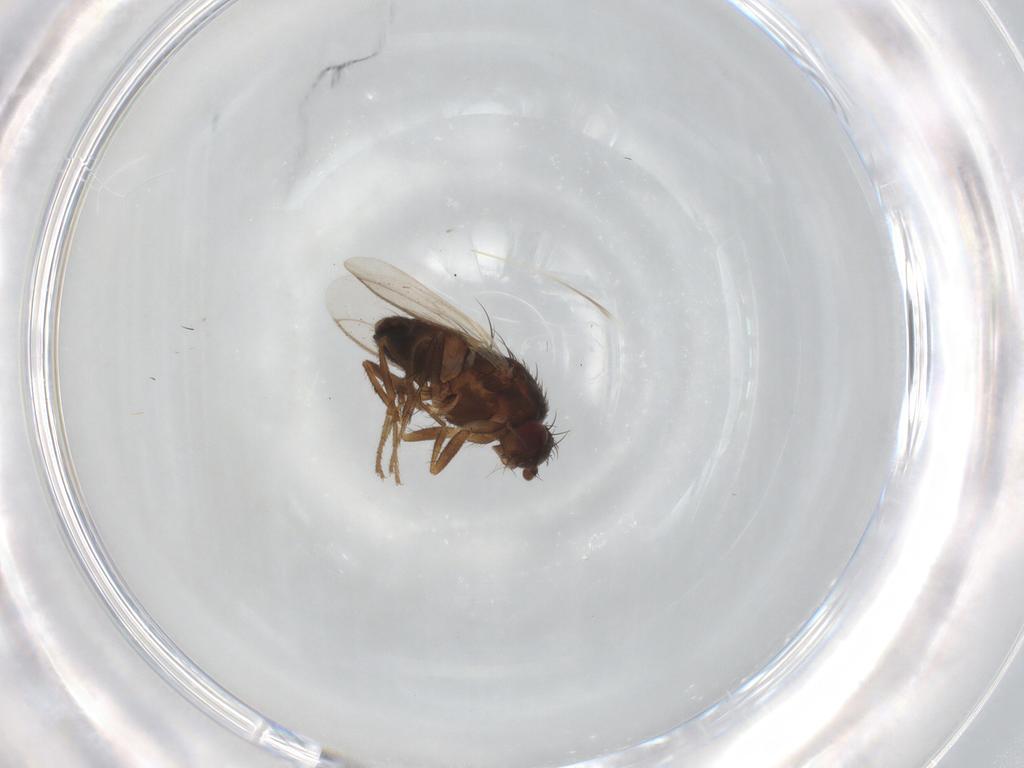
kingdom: Animalia
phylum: Arthropoda
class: Insecta
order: Diptera
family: Sphaeroceridae
